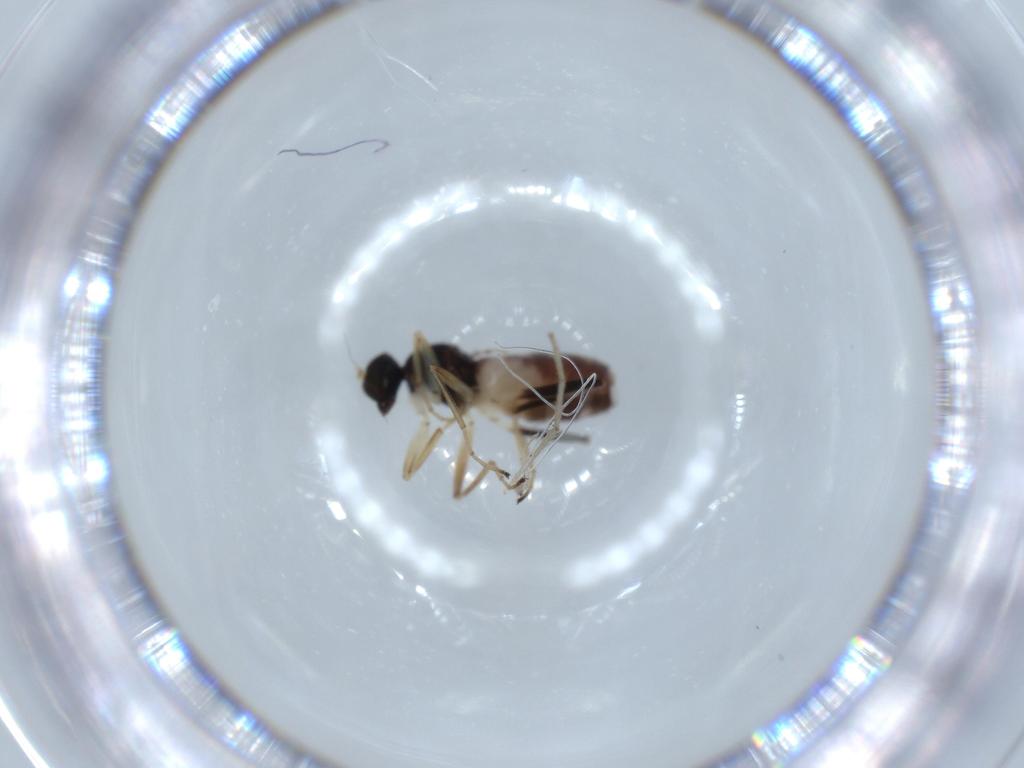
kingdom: Animalia
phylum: Arthropoda
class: Insecta
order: Diptera
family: Hybotidae
